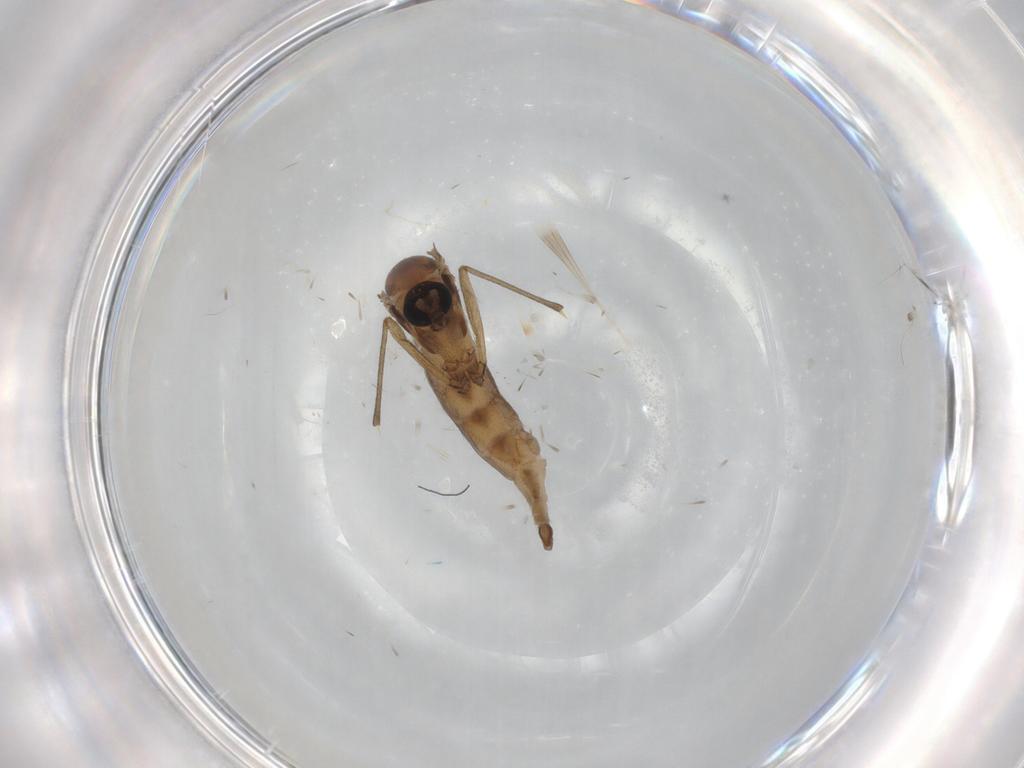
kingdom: Animalia
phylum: Arthropoda
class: Insecta
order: Diptera
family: Sciaridae
